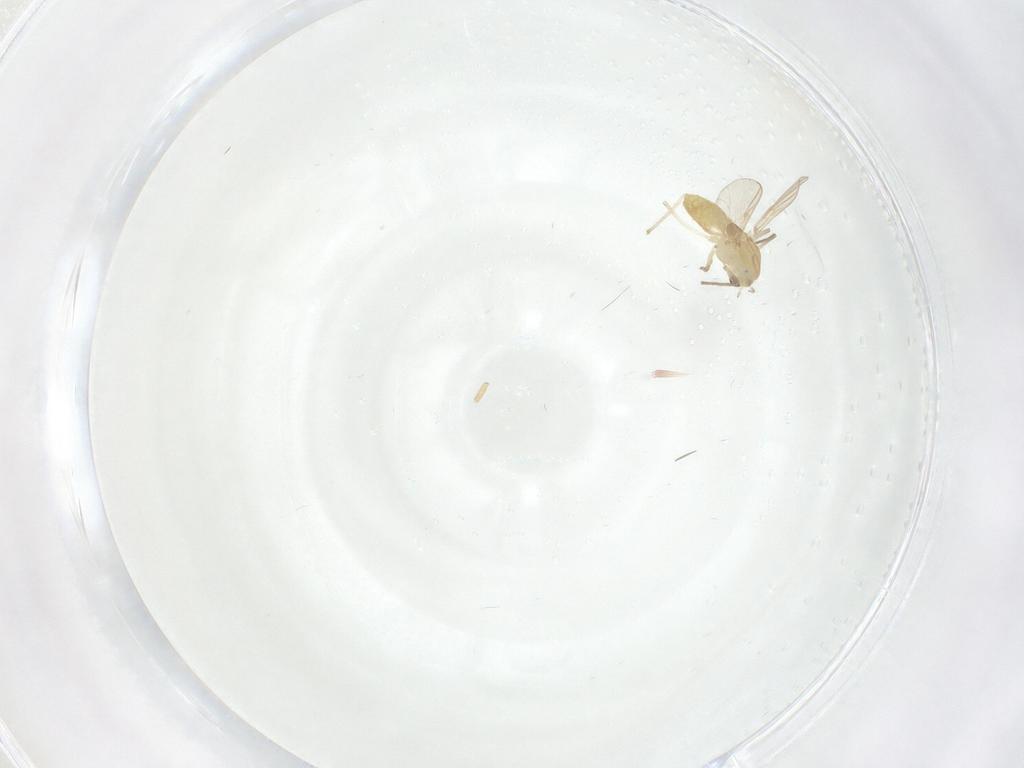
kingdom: Animalia
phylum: Arthropoda
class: Insecta
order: Diptera
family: Chironomidae
